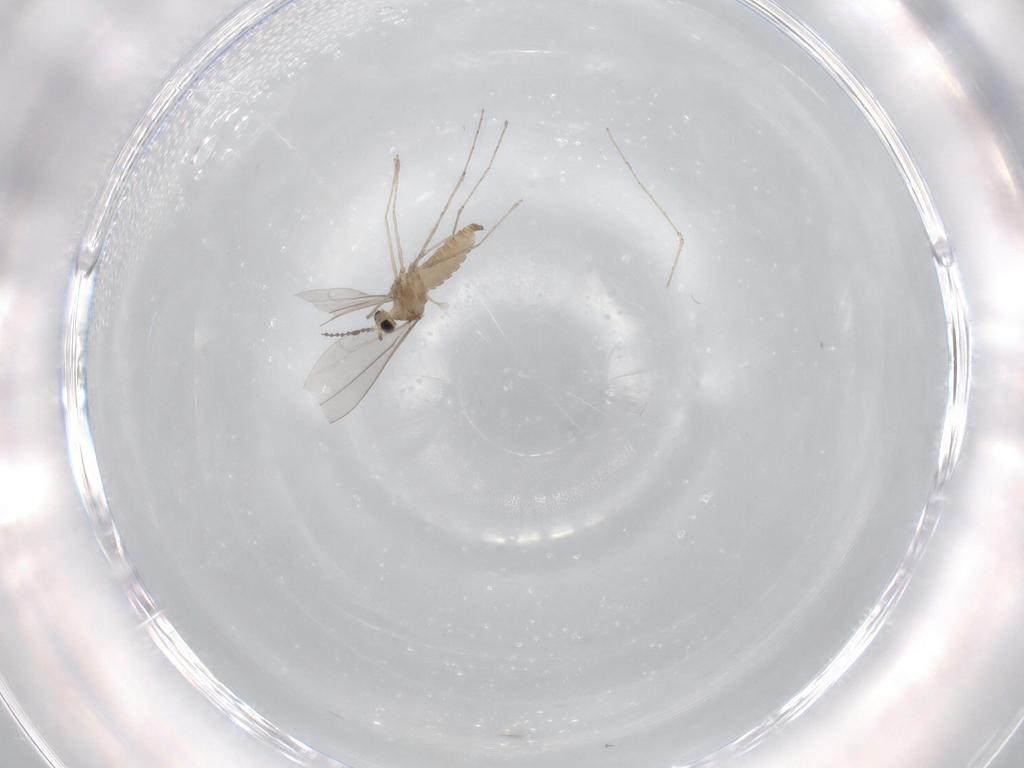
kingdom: Animalia
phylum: Arthropoda
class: Insecta
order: Diptera
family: Cecidomyiidae
